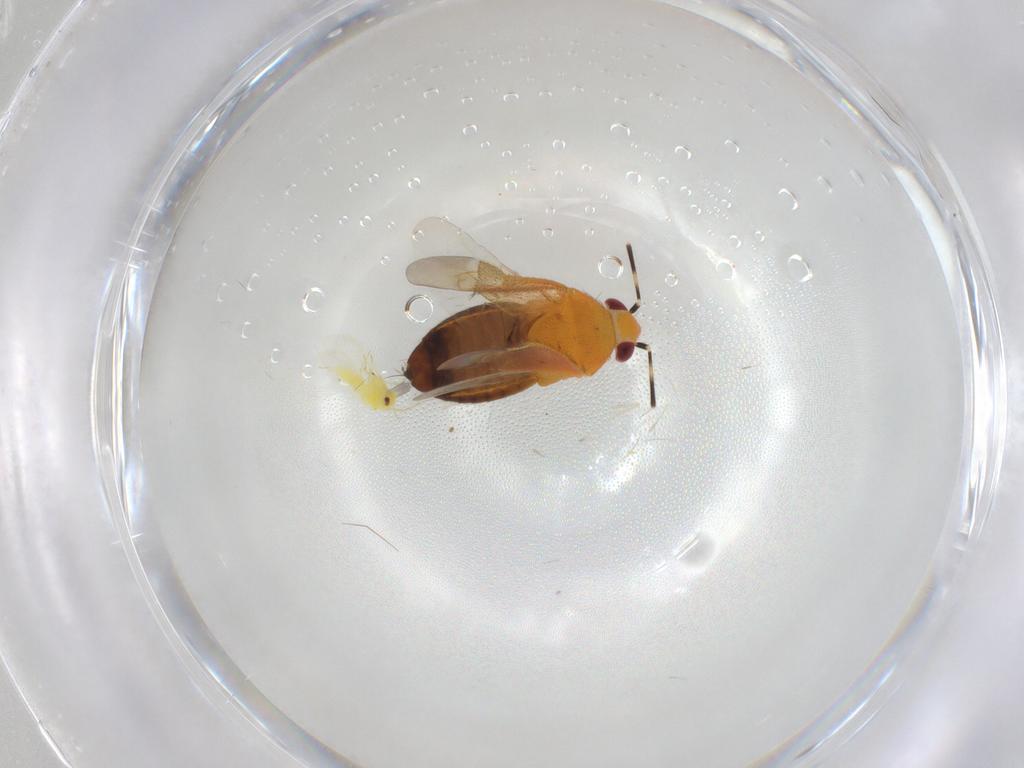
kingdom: Animalia
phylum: Arthropoda
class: Insecta
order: Hemiptera
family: Miridae
